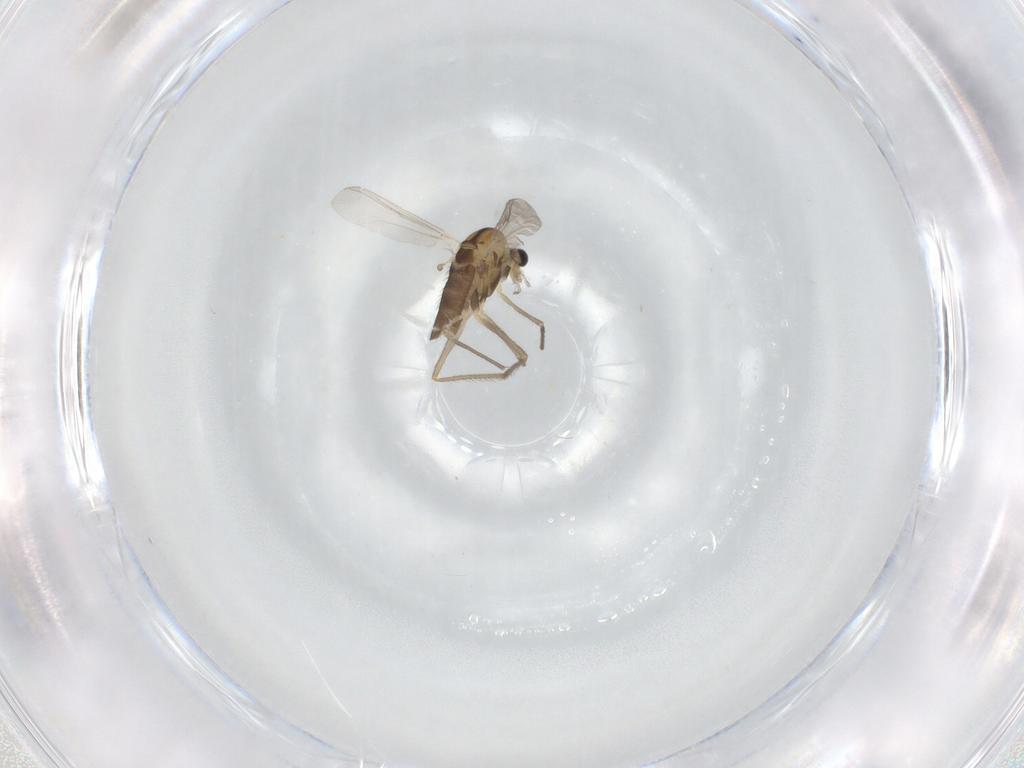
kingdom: Animalia
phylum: Arthropoda
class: Insecta
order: Diptera
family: Chironomidae
